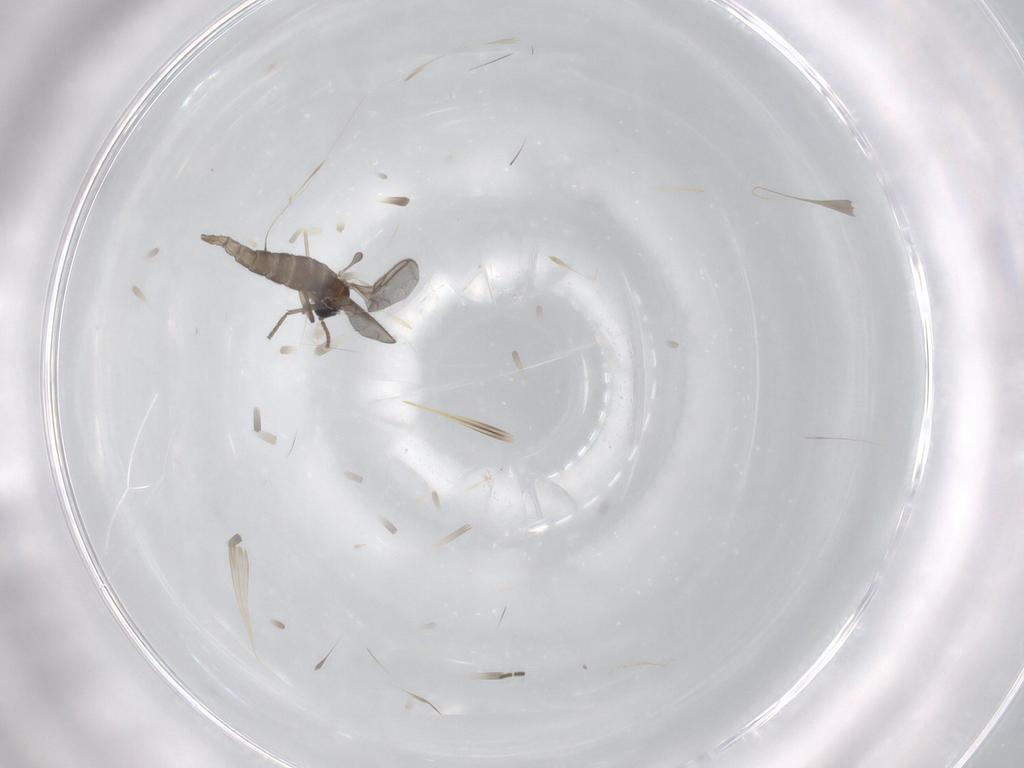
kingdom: Animalia
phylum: Arthropoda
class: Insecta
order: Diptera
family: Sciaridae
